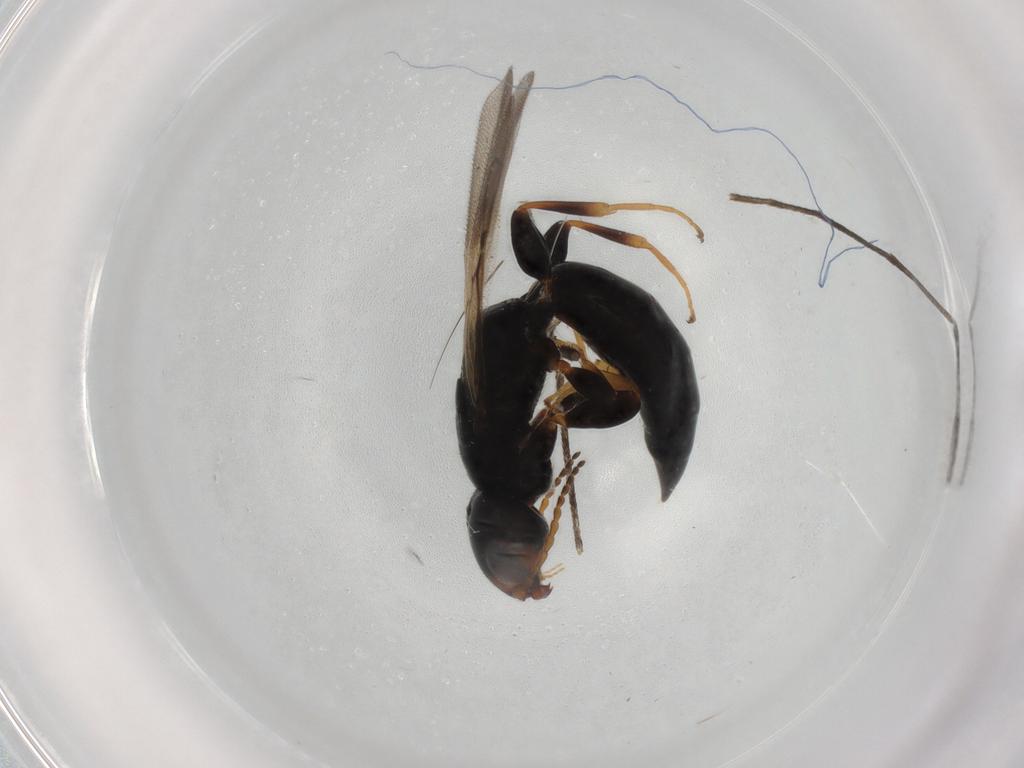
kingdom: Animalia
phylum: Arthropoda
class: Insecta
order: Hymenoptera
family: Bethylidae
